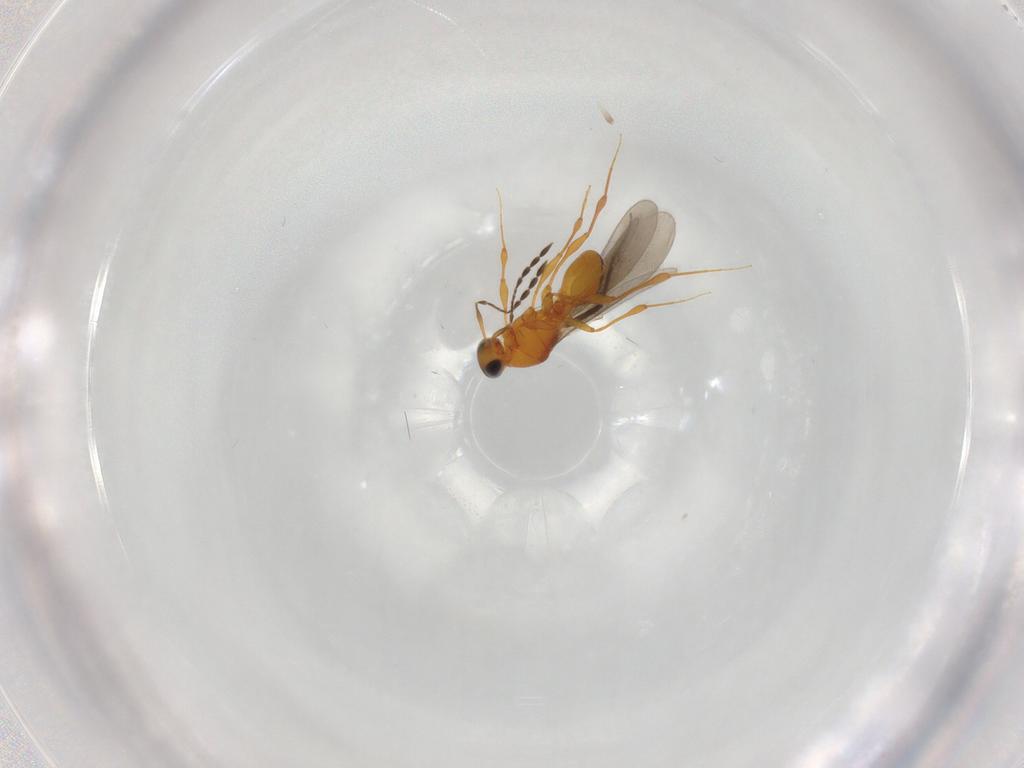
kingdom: Animalia
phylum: Arthropoda
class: Insecta
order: Hymenoptera
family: Platygastridae
